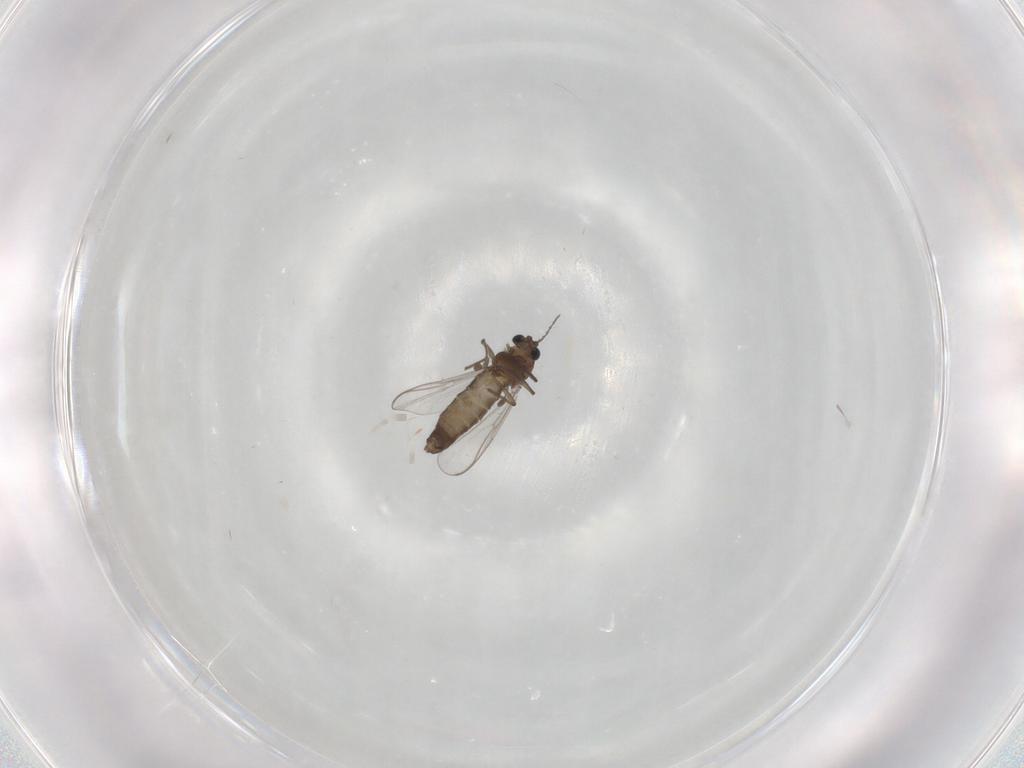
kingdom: Animalia
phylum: Arthropoda
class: Insecta
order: Diptera
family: Chironomidae
